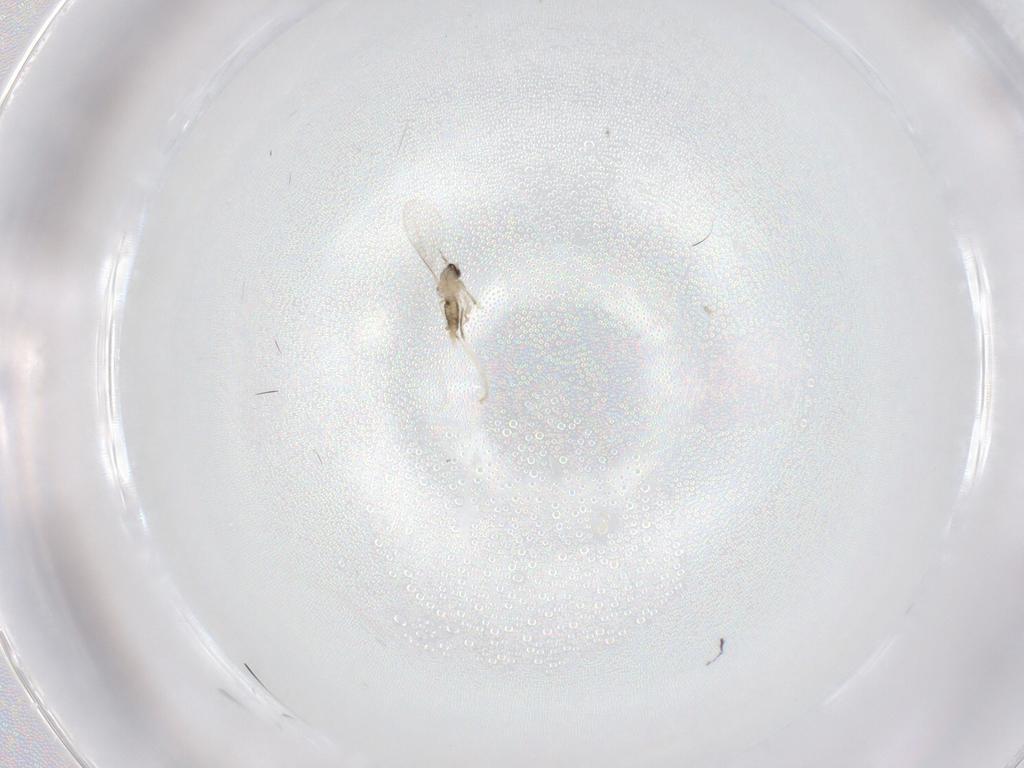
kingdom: Animalia
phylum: Arthropoda
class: Insecta
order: Diptera
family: Cecidomyiidae
